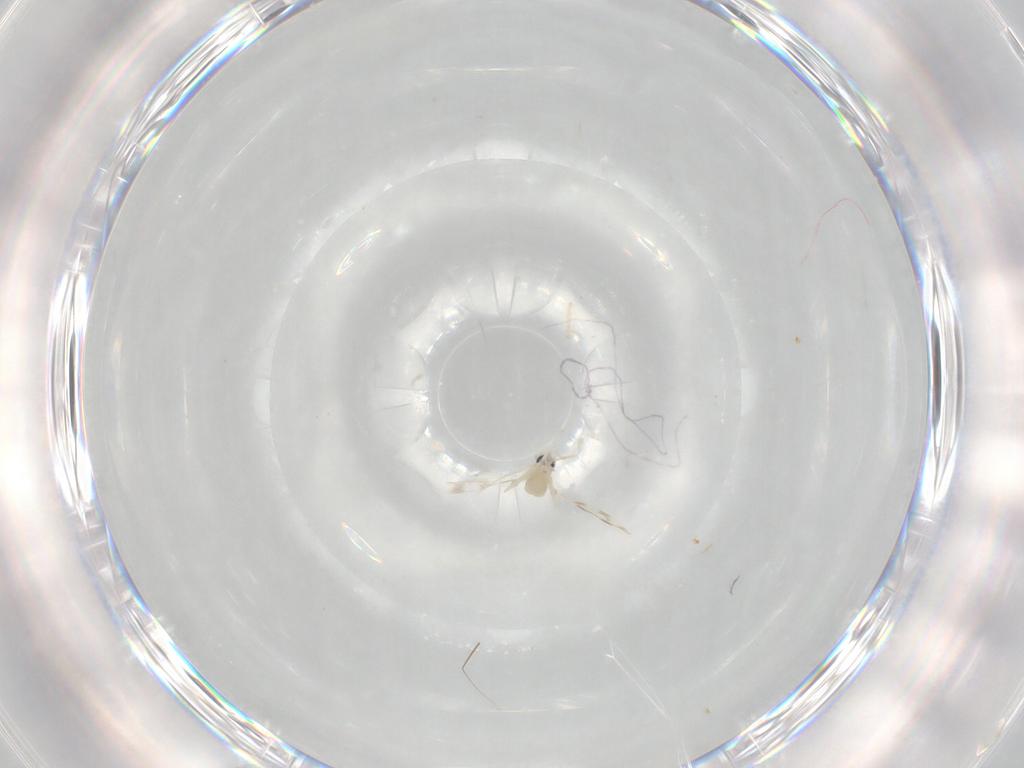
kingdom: Animalia
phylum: Arthropoda
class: Insecta
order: Diptera
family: Cecidomyiidae
